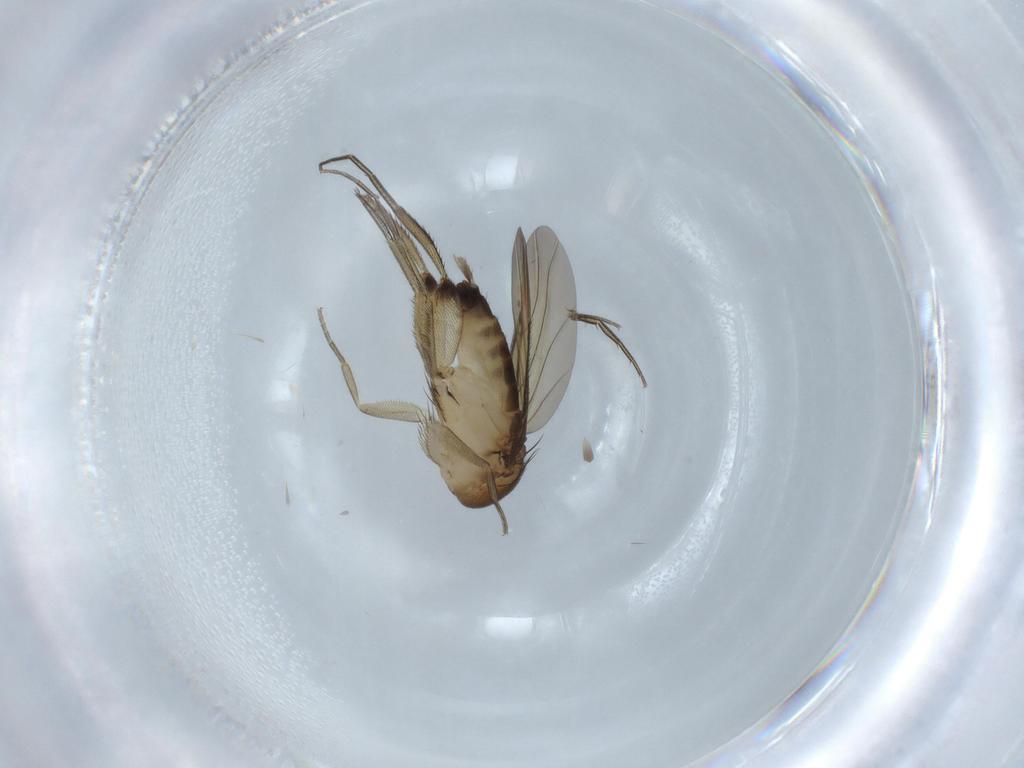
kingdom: Animalia
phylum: Arthropoda
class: Insecta
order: Diptera
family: Phoridae
